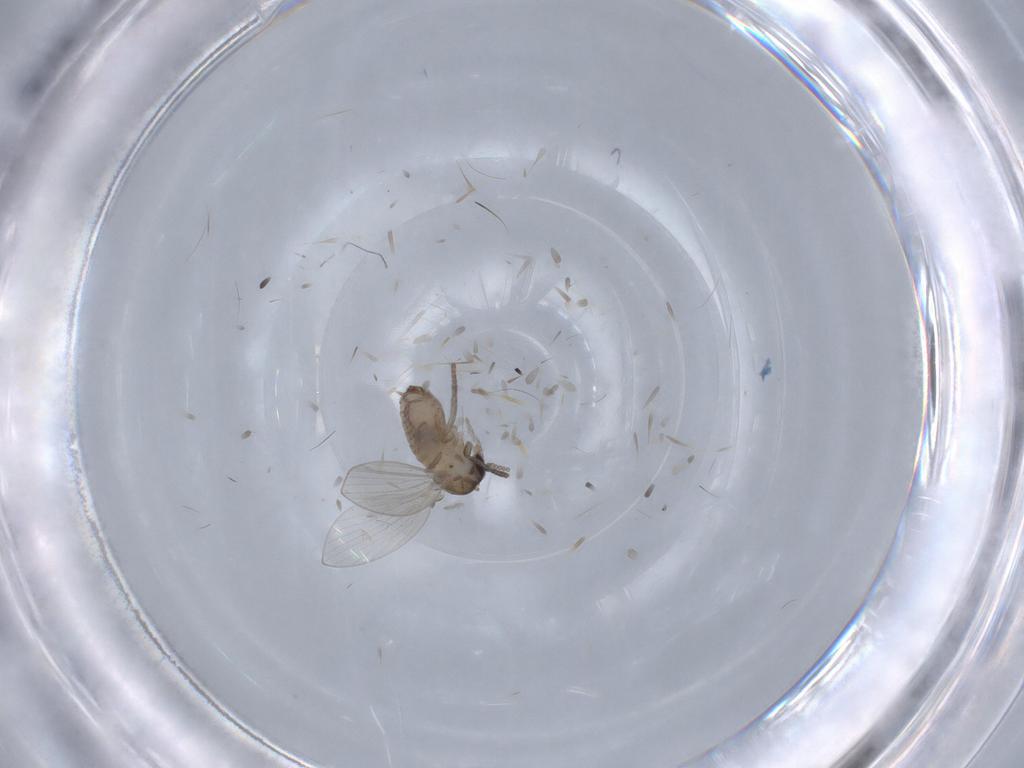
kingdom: Animalia
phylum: Arthropoda
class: Insecta
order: Diptera
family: Psychodidae
